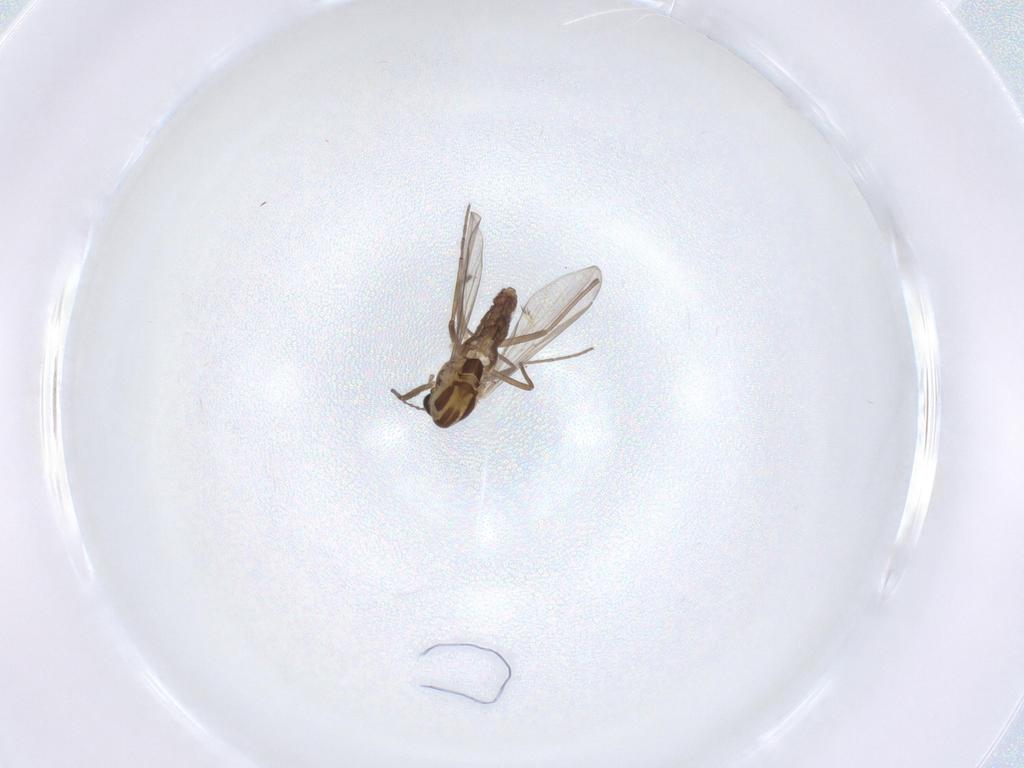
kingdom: Animalia
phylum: Arthropoda
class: Insecta
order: Diptera
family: Chironomidae
